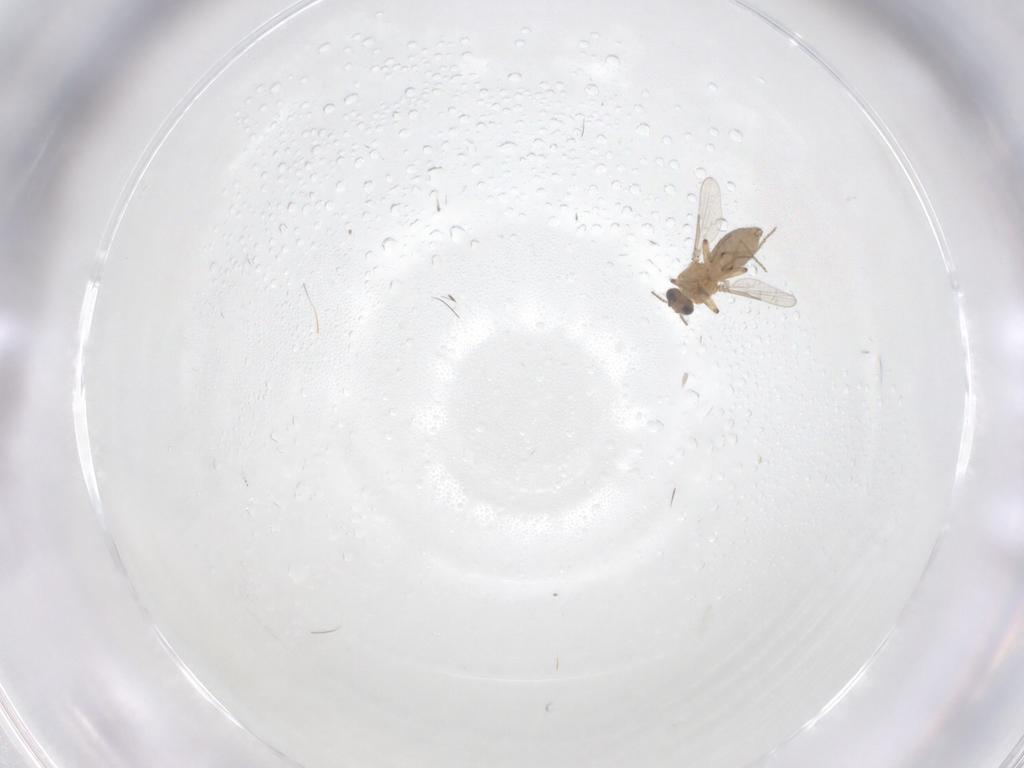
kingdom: Animalia
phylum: Arthropoda
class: Insecta
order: Diptera
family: Ceratopogonidae
